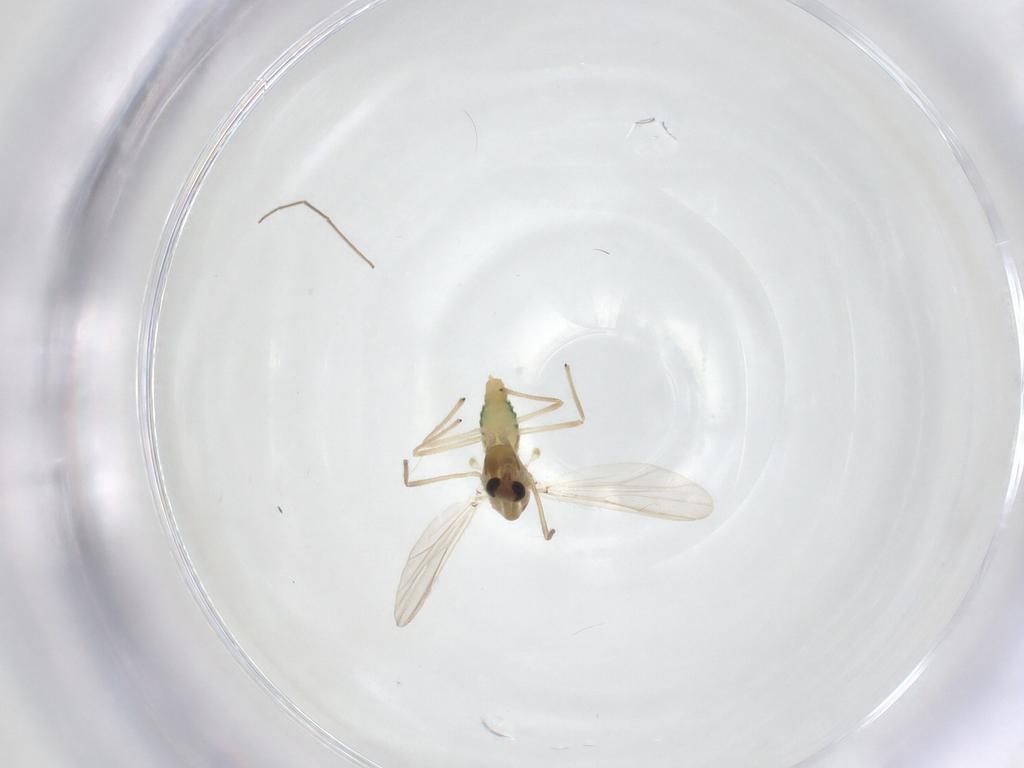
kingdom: Animalia
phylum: Arthropoda
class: Insecta
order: Diptera
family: Chironomidae
